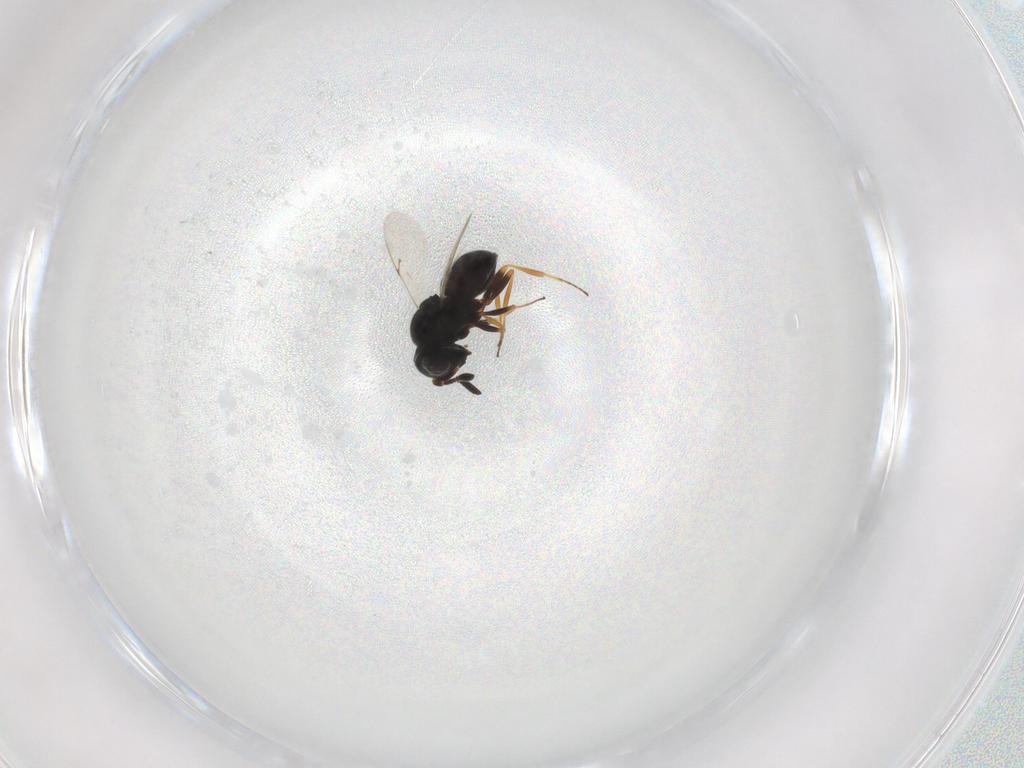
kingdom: Animalia
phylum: Arthropoda
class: Insecta
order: Hymenoptera
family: Scelionidae
